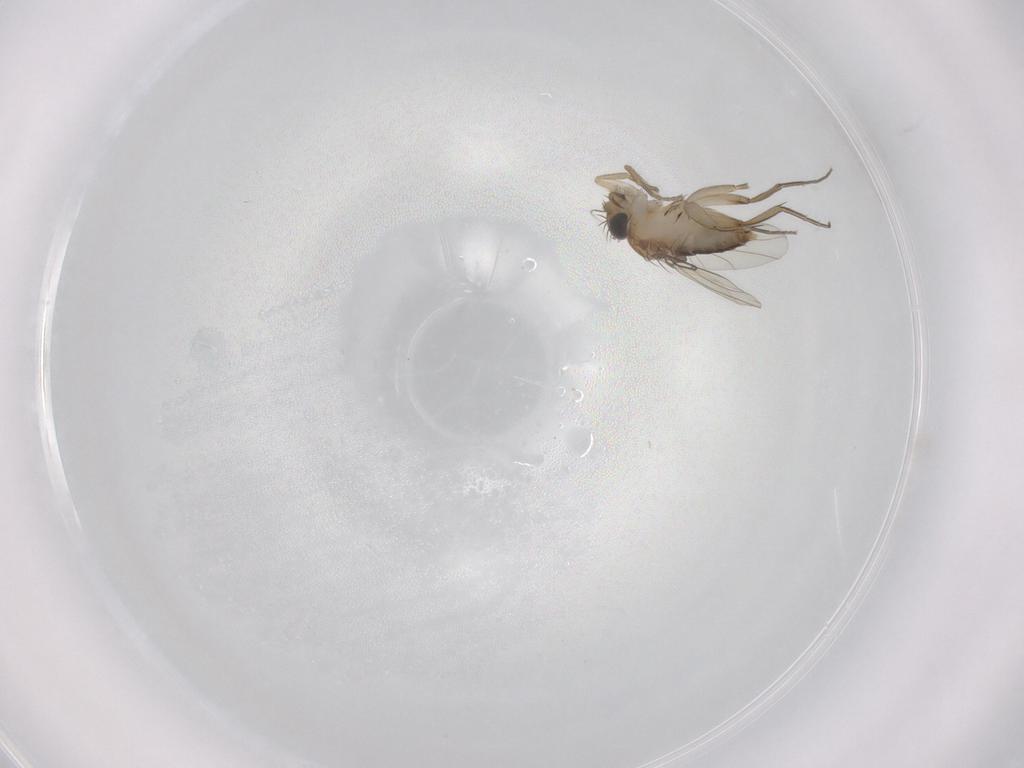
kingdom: Animalia
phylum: Arthropoda
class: Insecta
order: Diptera
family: Phoridae
